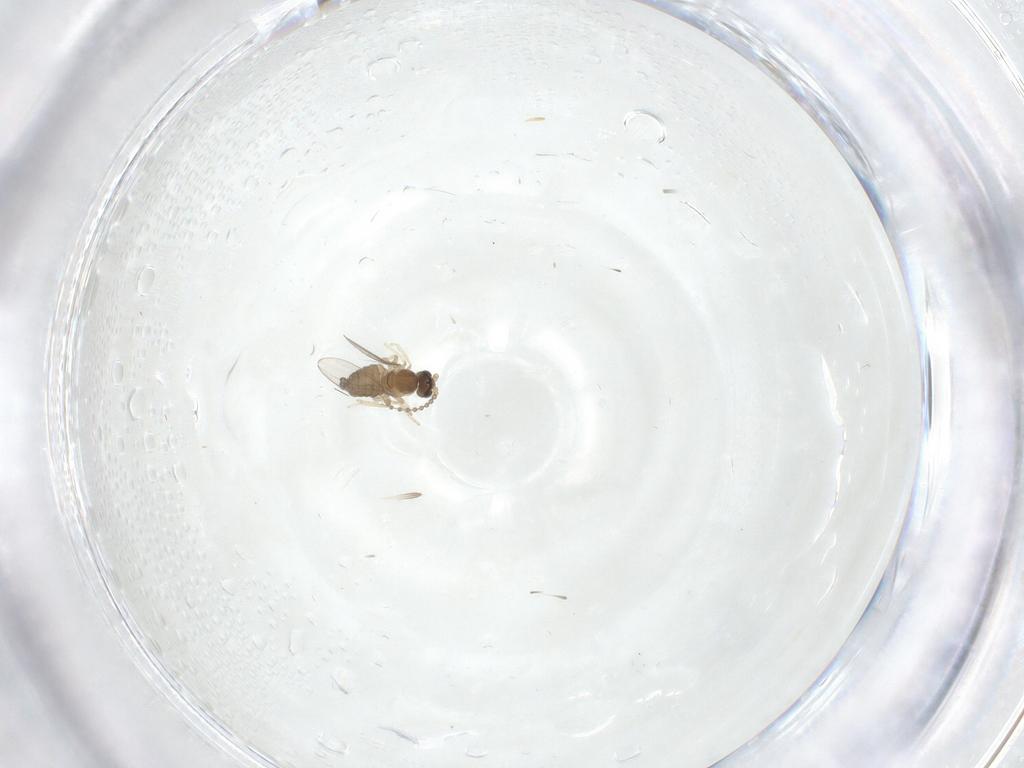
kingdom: Animalia
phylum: Arthropoda
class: Insecta
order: Diptera
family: Cecidomyiidae
